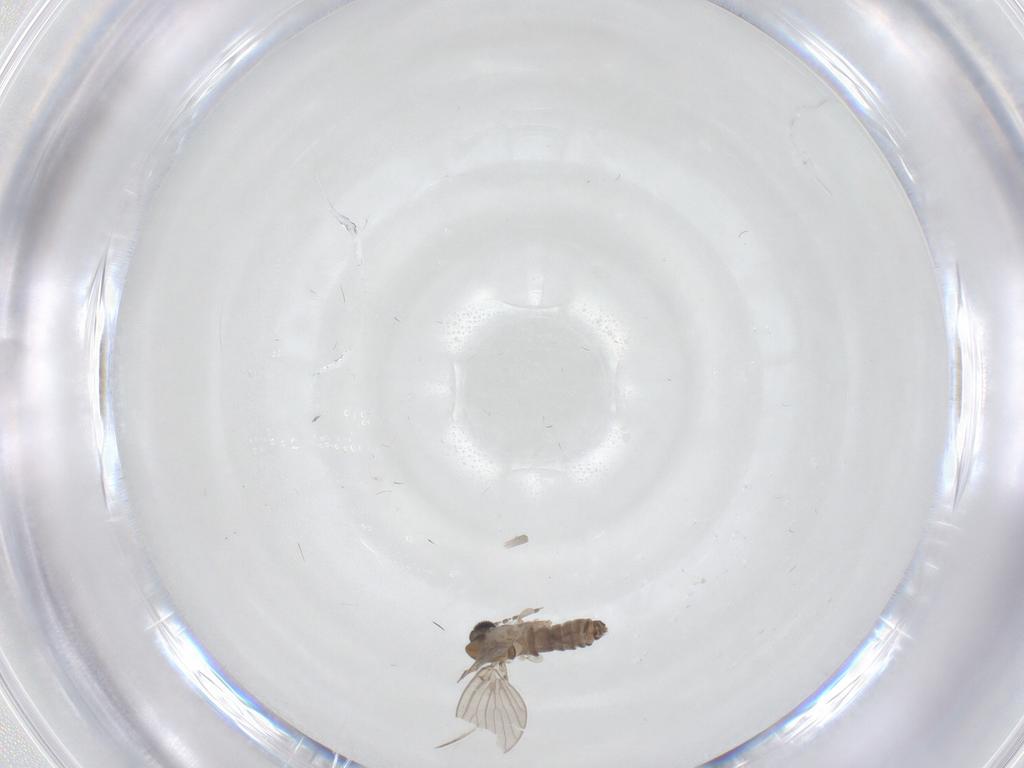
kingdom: Animalia
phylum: Arthropoda
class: Insecta
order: Diptera
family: Psychodidae
